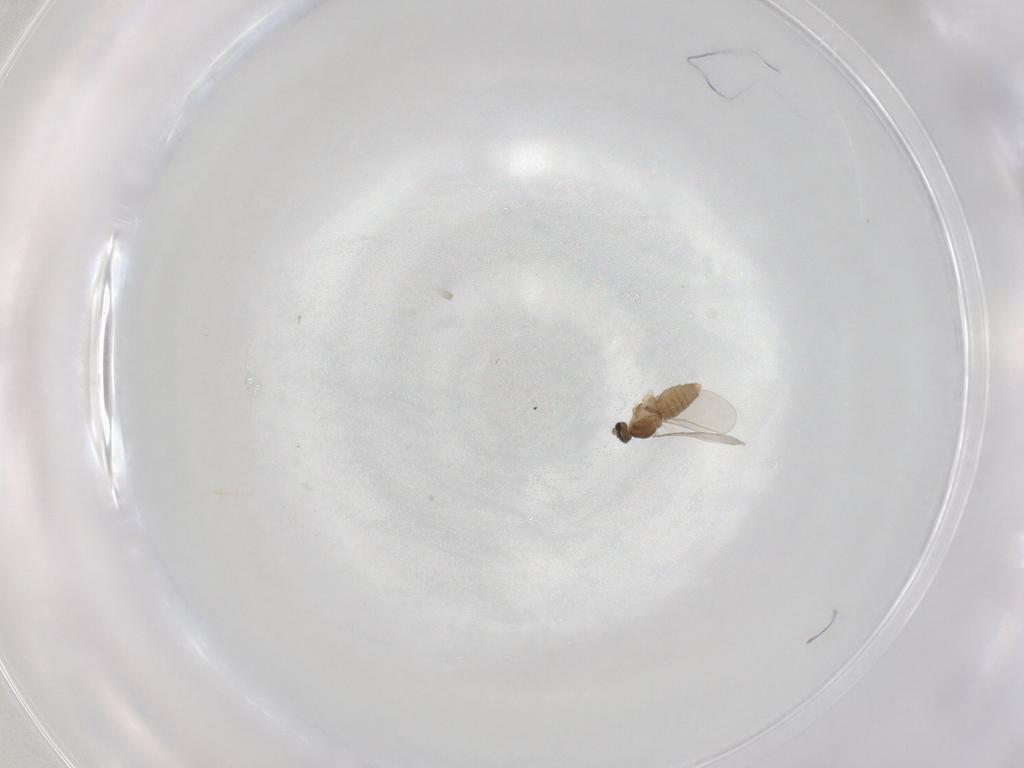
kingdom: Animalia
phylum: Arthropoda
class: Insecta
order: Diptera
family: Cecidomyiidae
